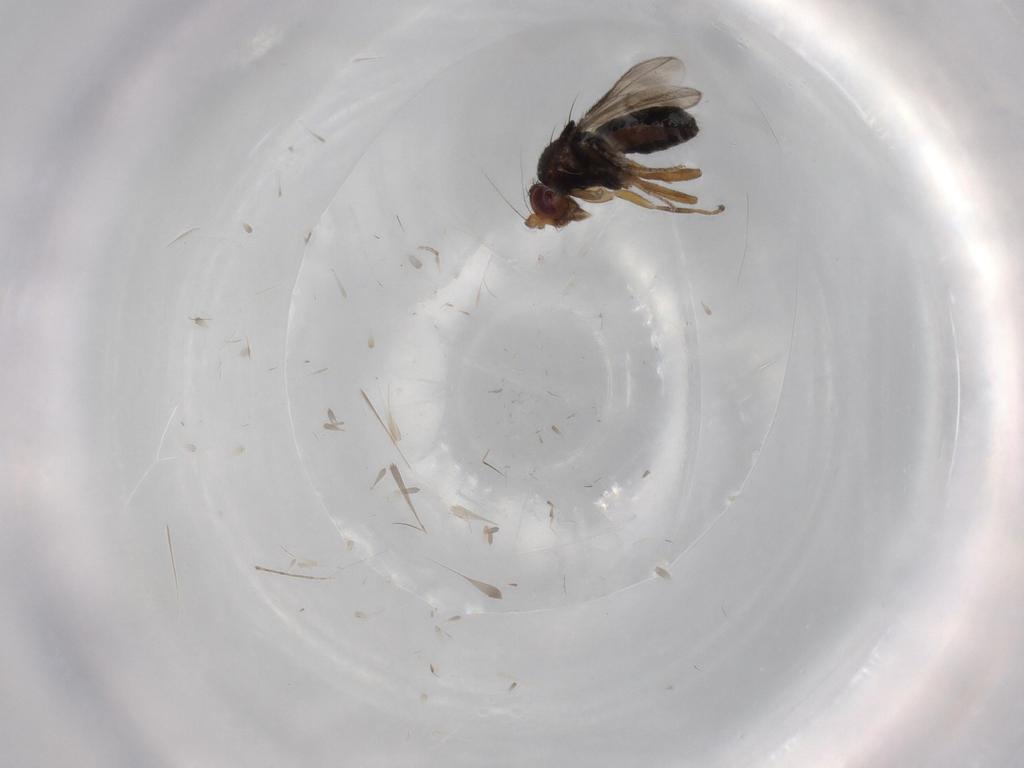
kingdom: Animalia
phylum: Arthropoda
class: Insecta
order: Diptera
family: Sphaeroceridae
